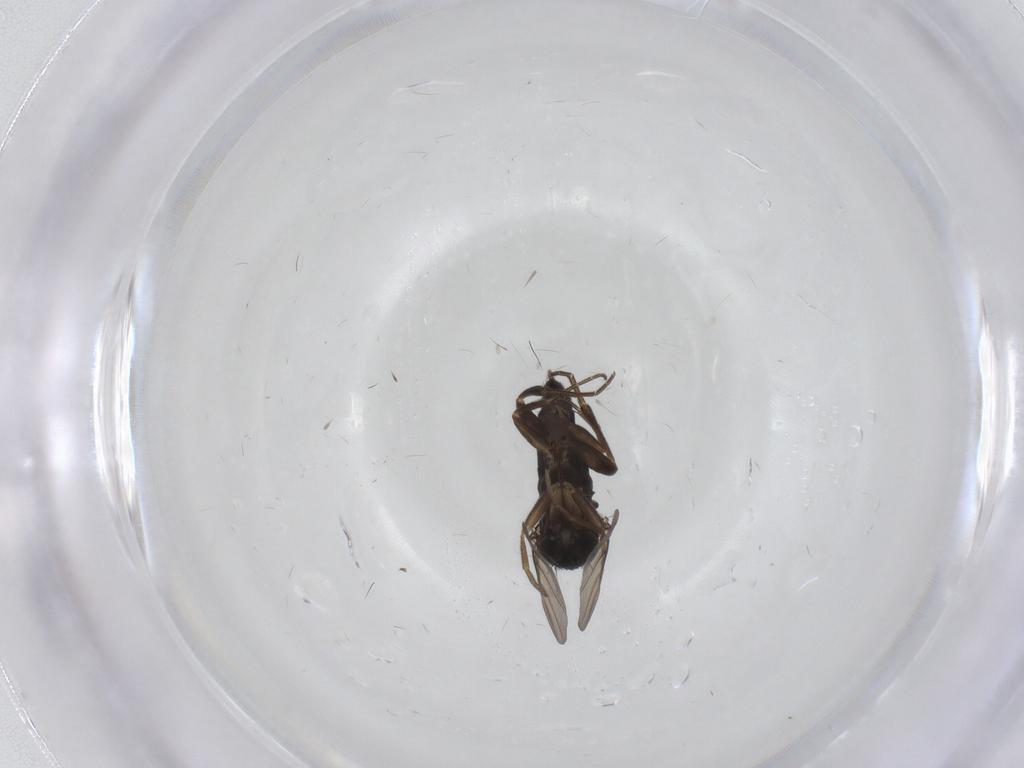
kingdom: Animalia
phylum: Arthropoda
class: Insecta
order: Diptera
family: Phoridae
